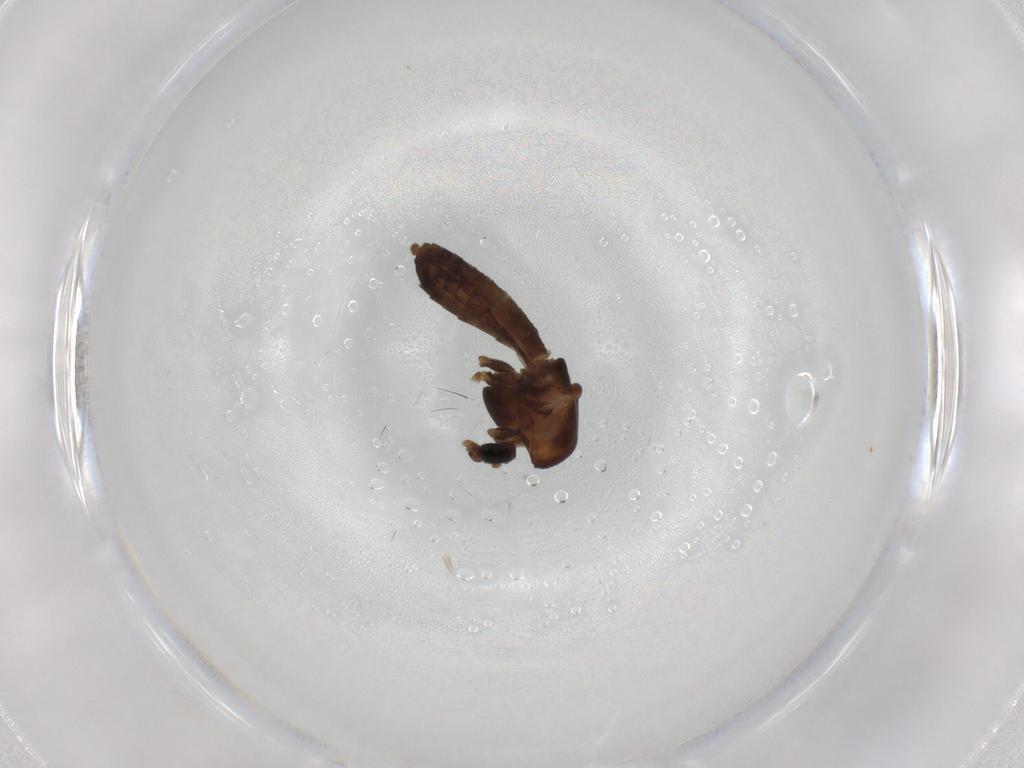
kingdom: Animalia
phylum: Arthropoda
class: Insecta
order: Diptera
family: Chironomidae
